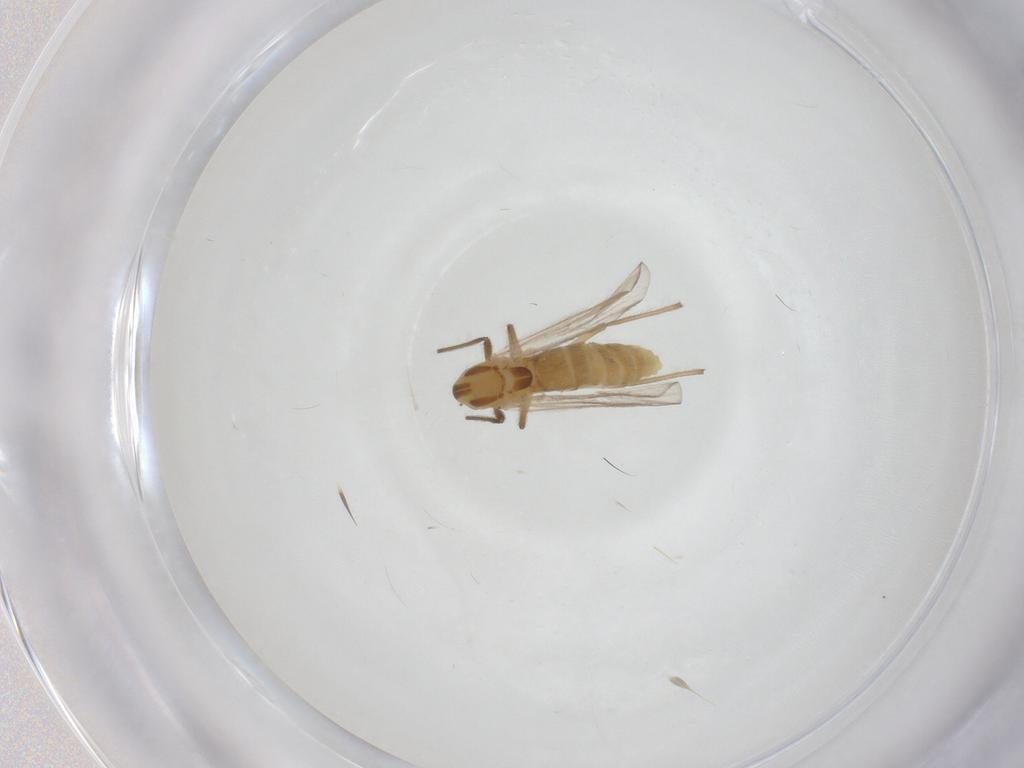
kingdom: Animalia
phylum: Arthropoda
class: Insecta
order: Diptera
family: Chironomidae
